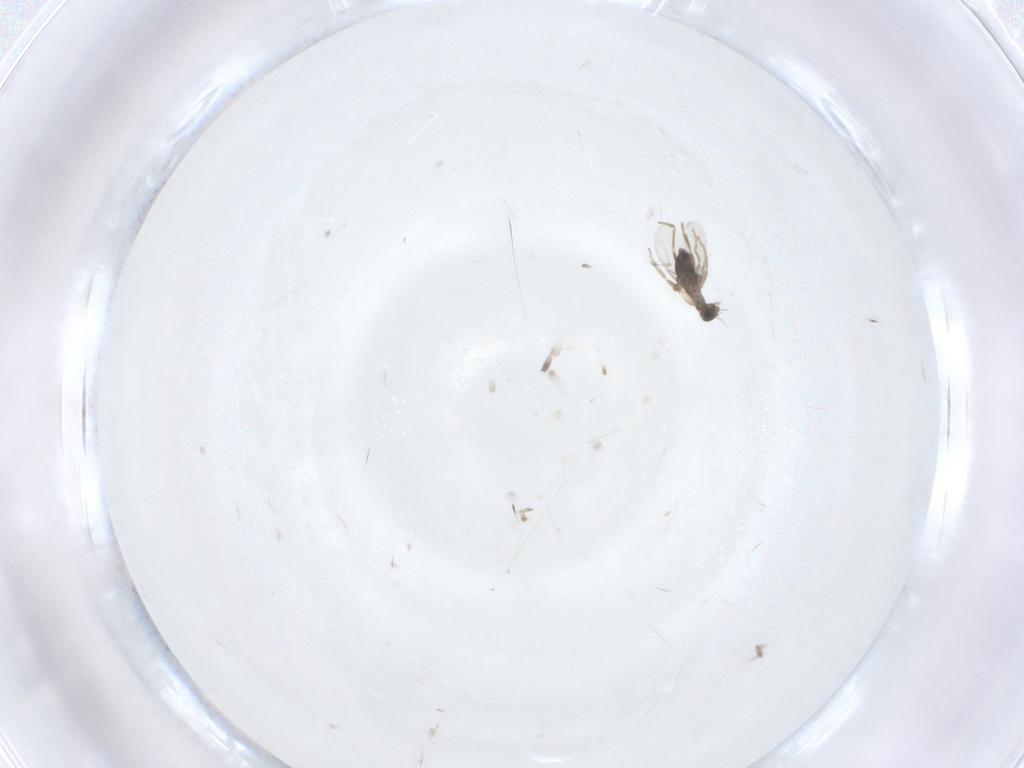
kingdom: Animalia
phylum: Arthropoda
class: Insecta
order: Diptera
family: Phoridae
